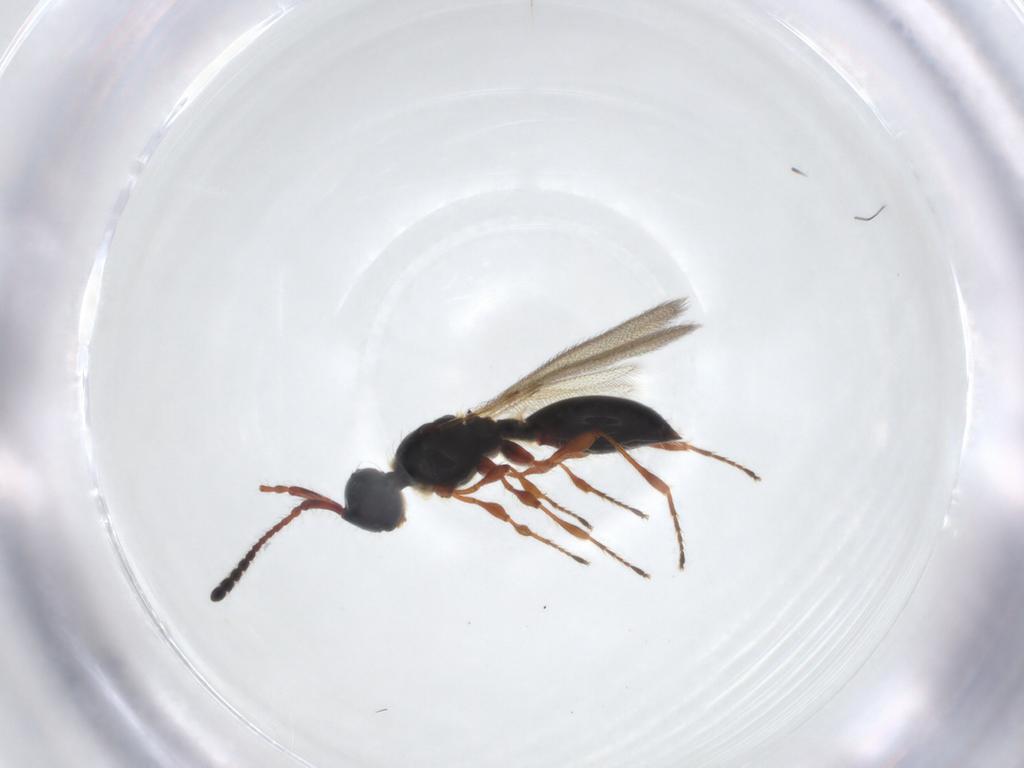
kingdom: Animalia
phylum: Arthropoda
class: Insecta
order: Hymenoptera
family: Diapriidae
